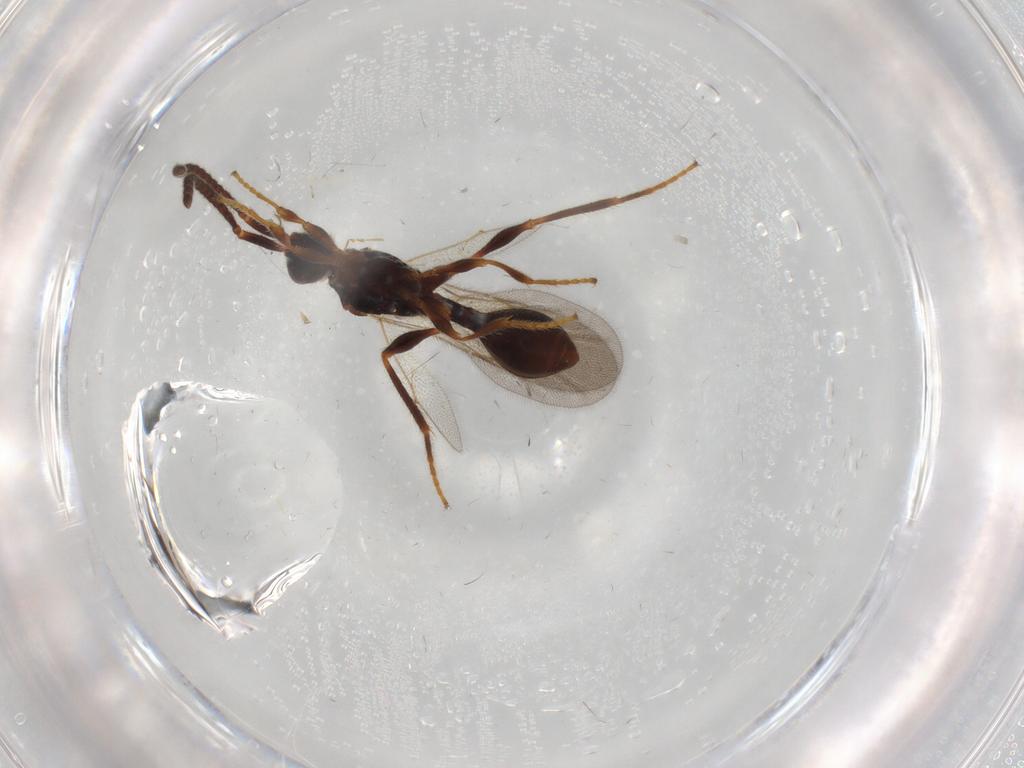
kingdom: Animalia
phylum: Arthropoda
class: Insecta
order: Hymenoptera
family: Diapriidae
